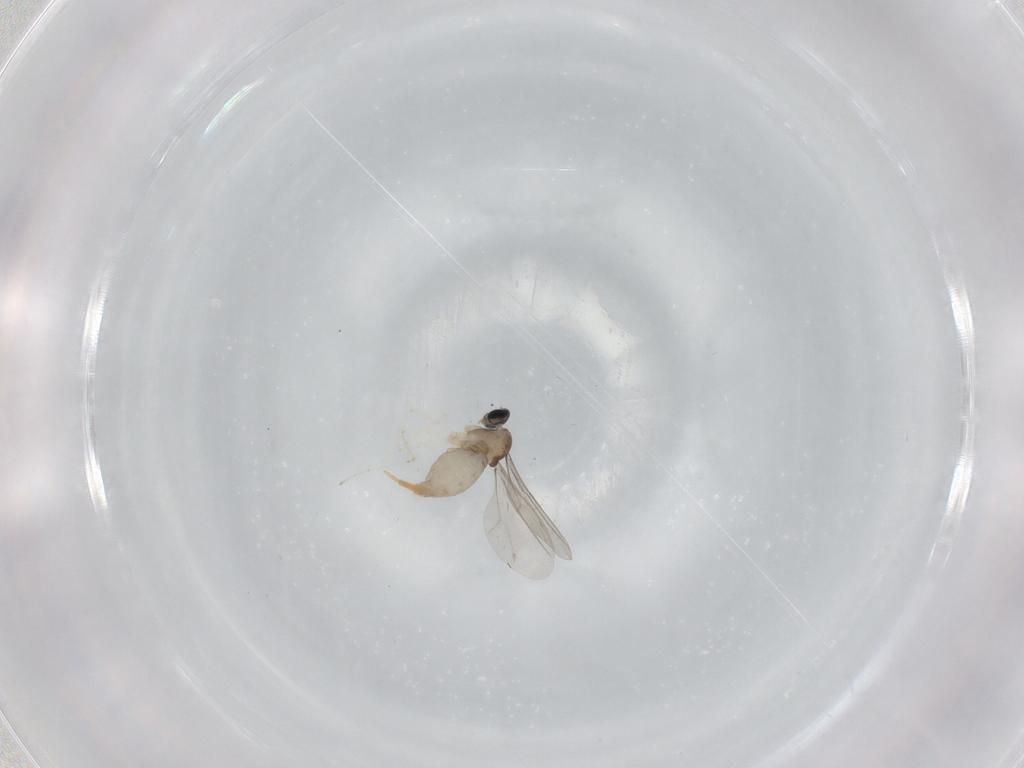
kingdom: Animalia
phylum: Arthropoda
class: Insecta
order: Diptera
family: Cecidomyiidae
